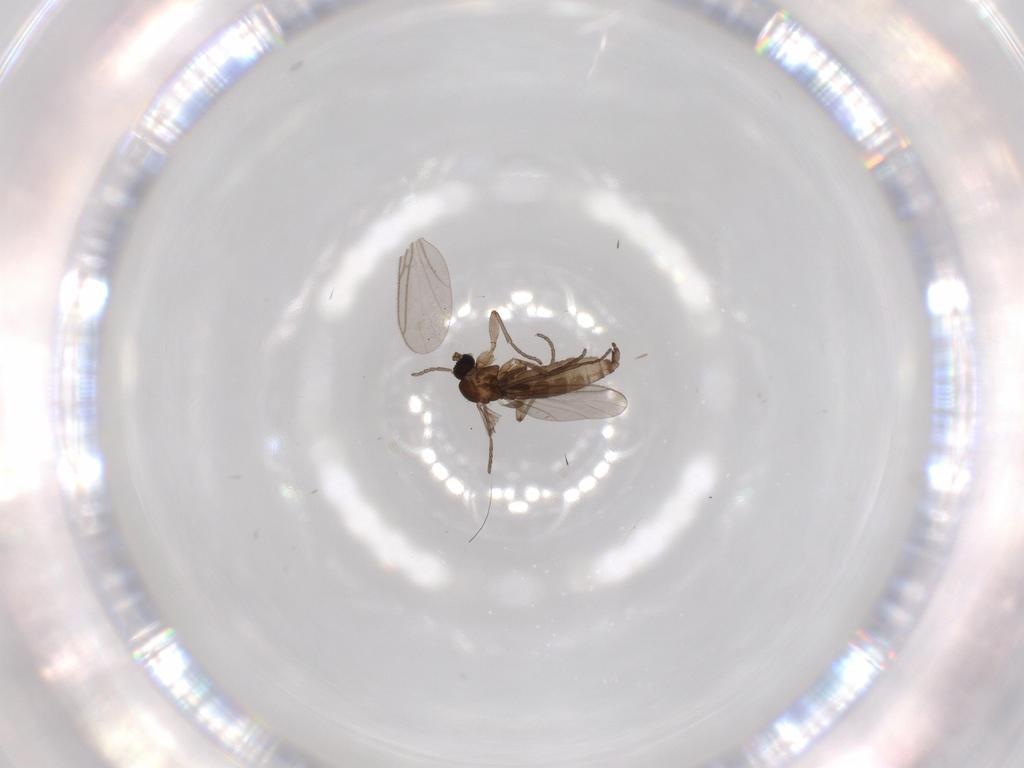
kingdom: Animalia
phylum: Arthropoda
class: Arachnida
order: Trombidiformes
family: Erythraeidae
